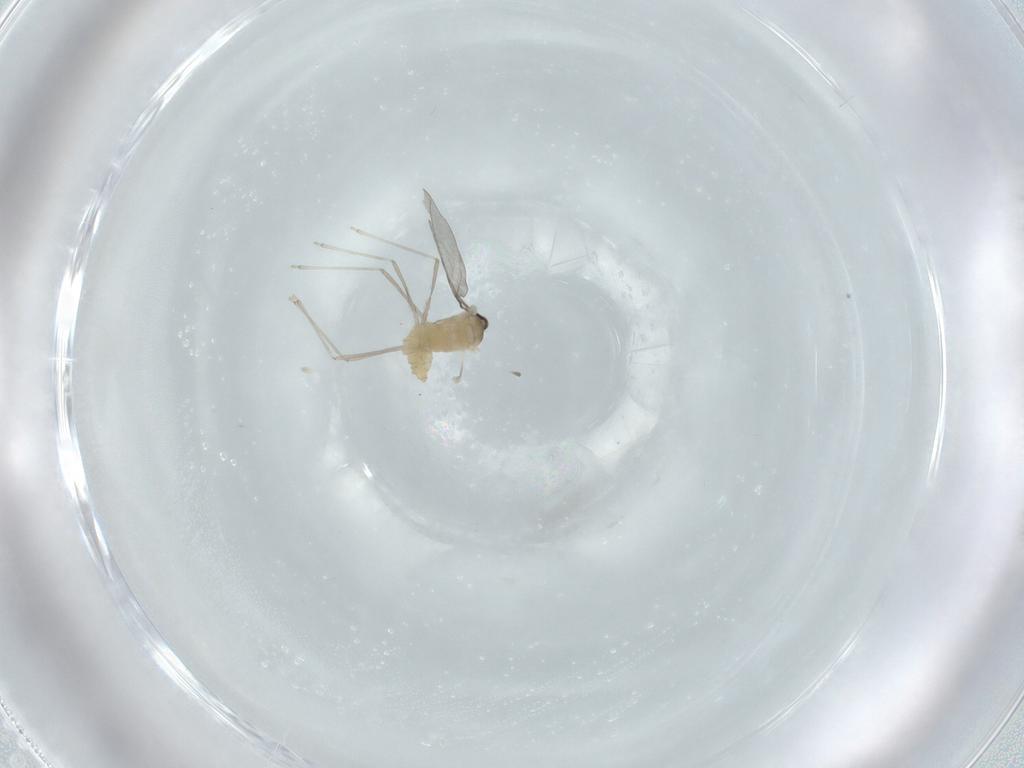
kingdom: Animalia
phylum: Arthropoda
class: Insecta
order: Diptera
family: Cecidomyiidae
